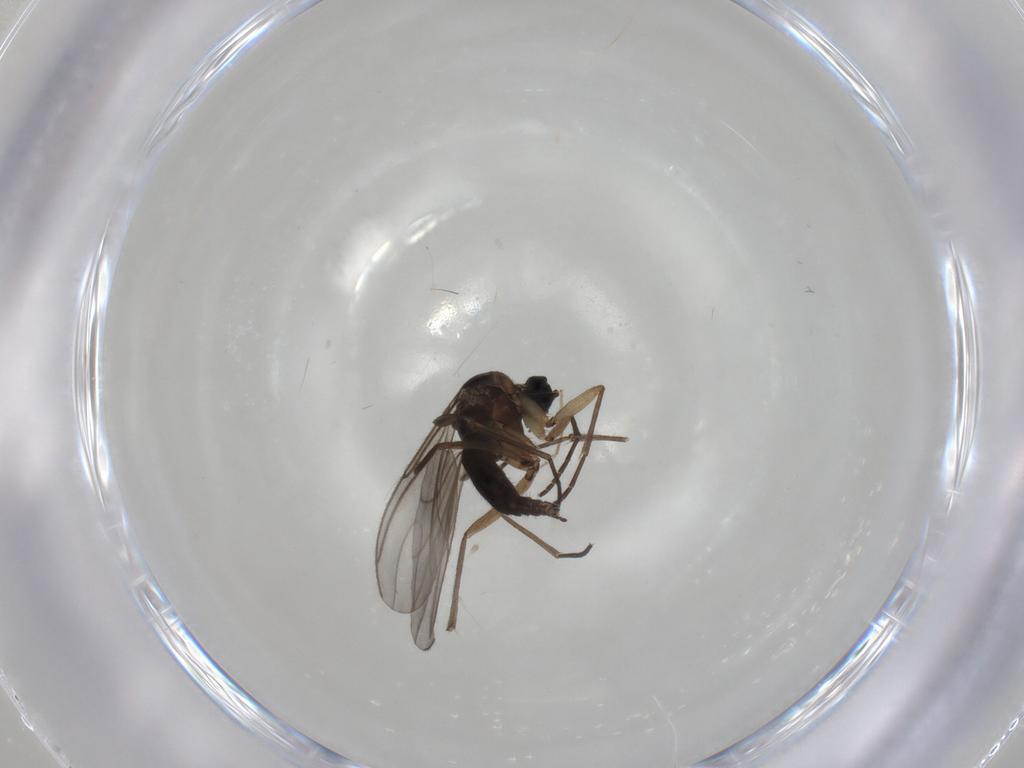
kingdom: Animalia
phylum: Arthropoda
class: Insecta
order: Diptera
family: Sciaridae
